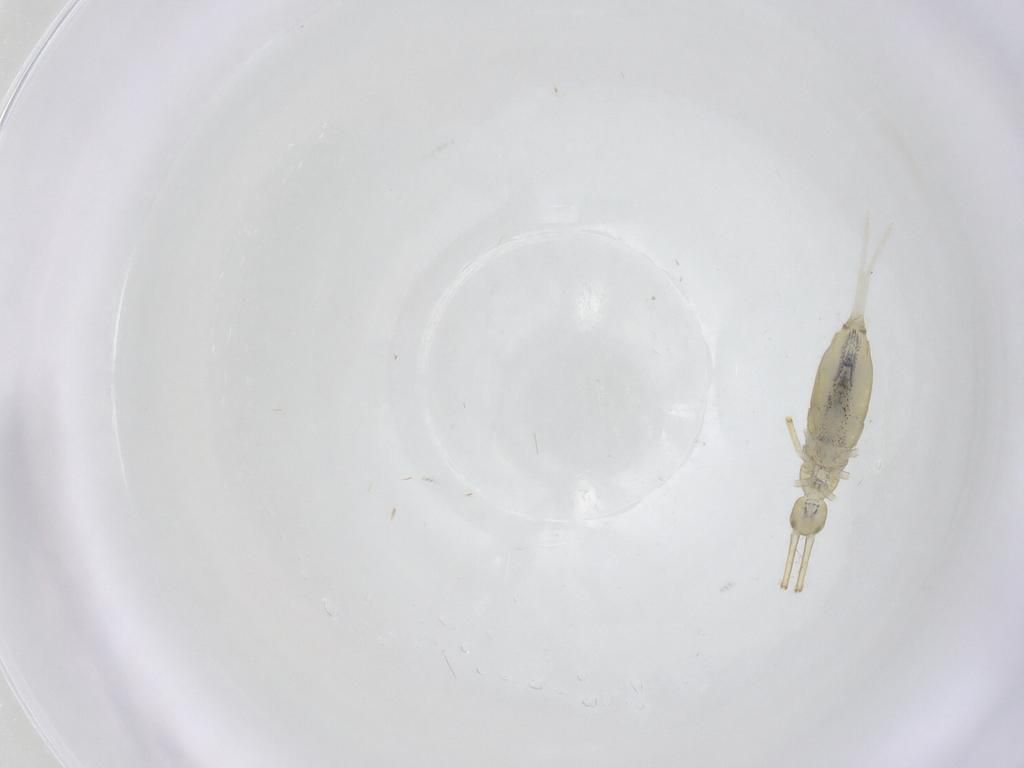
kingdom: Animalia
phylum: Arthropoda
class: Collembola
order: Entomobryomorpha
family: Paronellidae
